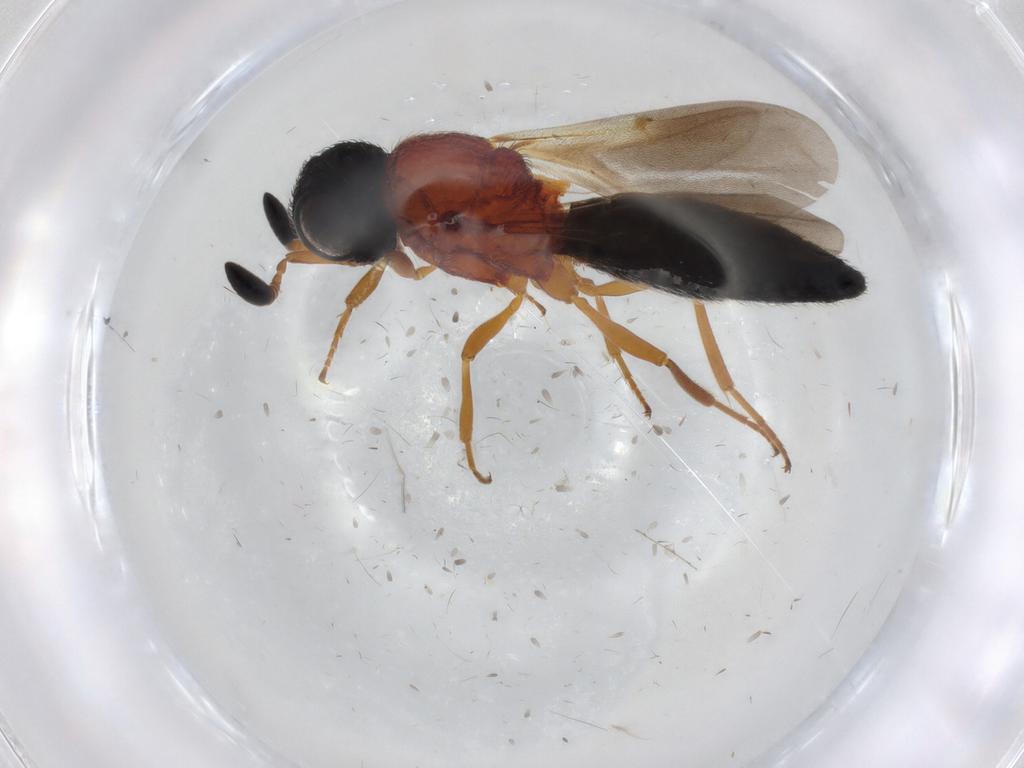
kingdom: Animalia
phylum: Arthropoda
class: Insecta
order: Hymenoptera
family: Scelionidae
